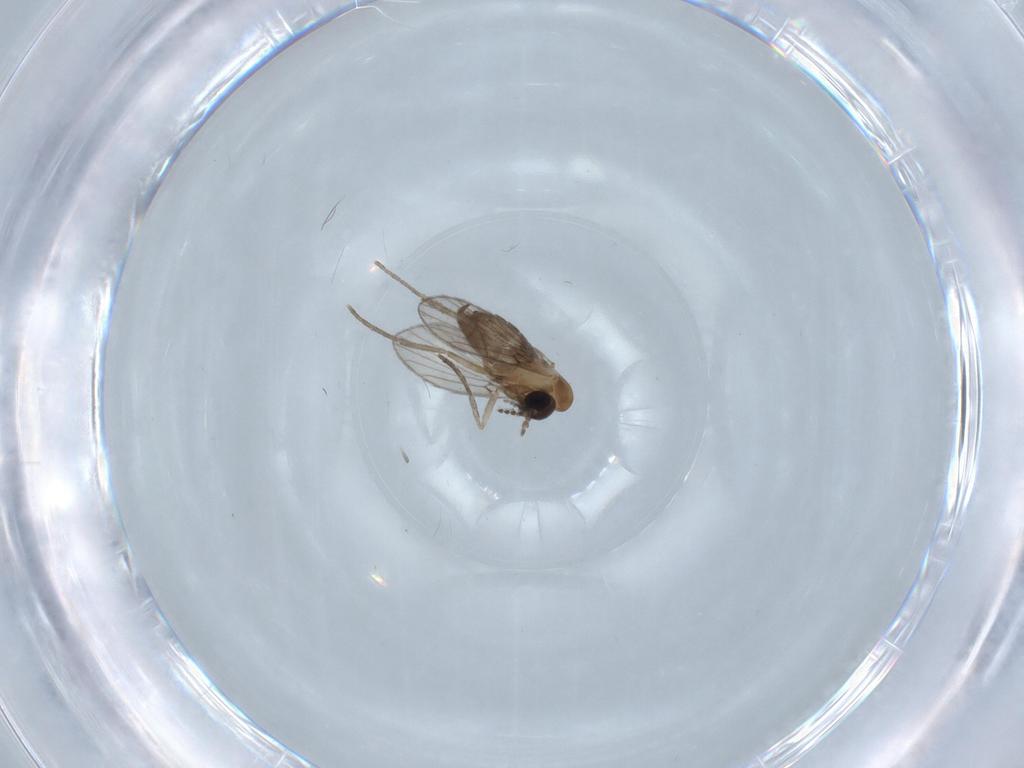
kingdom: Animalia
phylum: Arthropoda
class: Insecta
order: Diptera
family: Psychodidae
